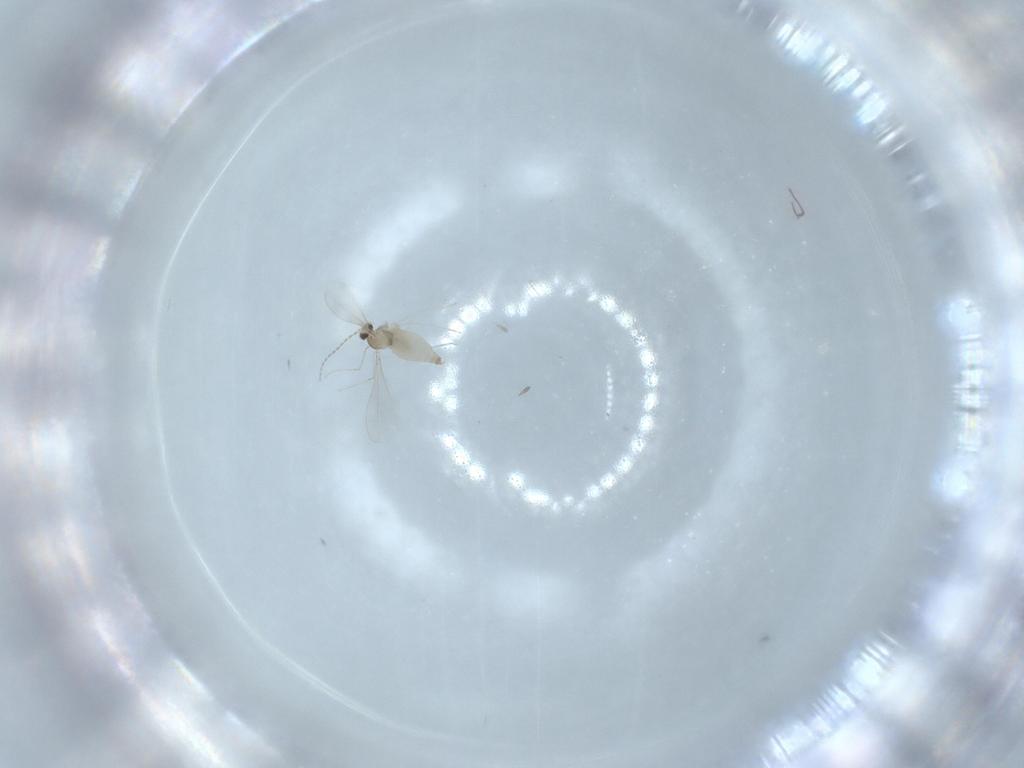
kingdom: Animalia
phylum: Arthropoda
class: Insecta
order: Diptera
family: Cecidomyiidae
